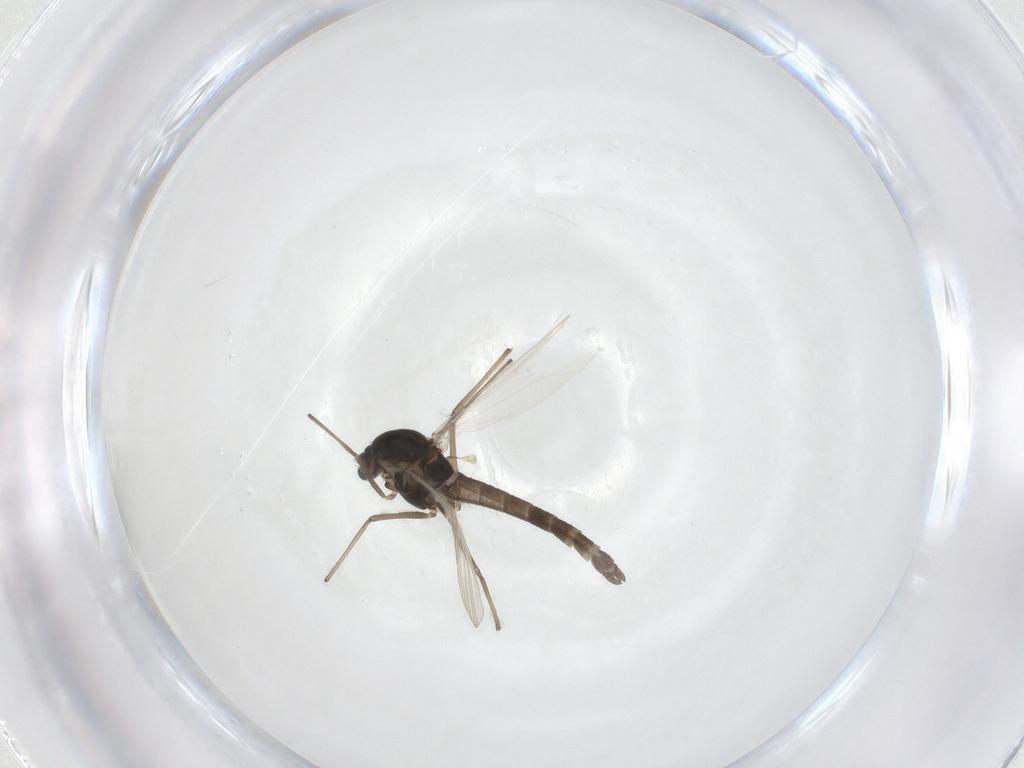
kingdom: Animalia
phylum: Arthropoda
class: Insecta
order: Diptera
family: Chironomidae
